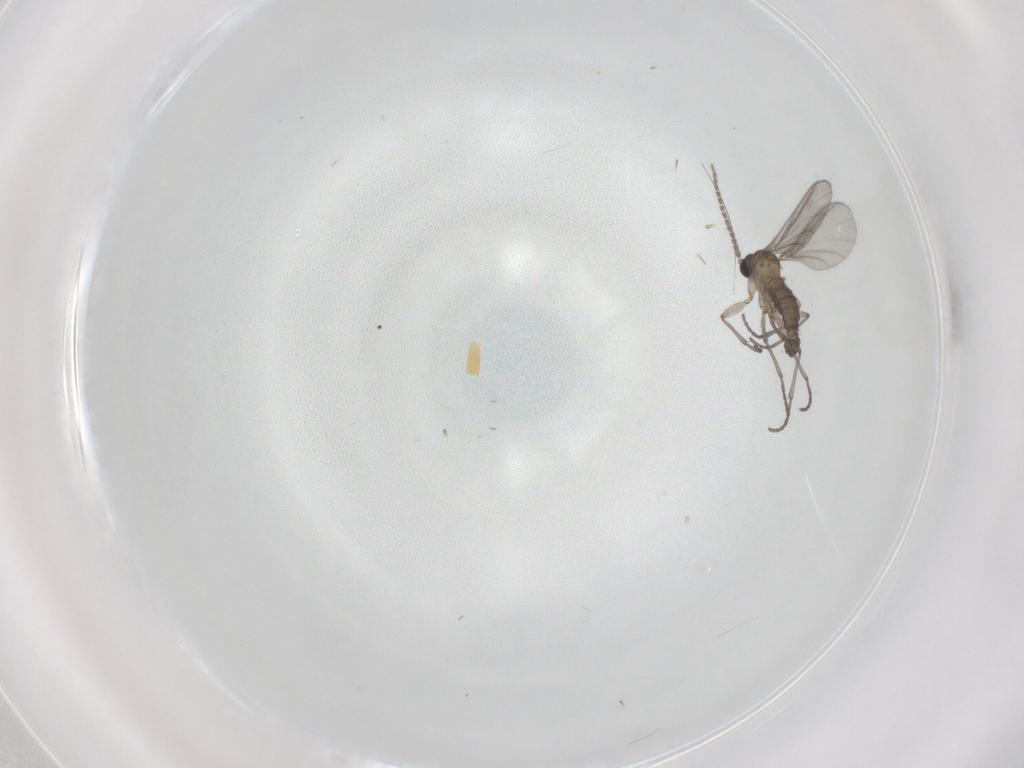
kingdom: Animalia
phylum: Arthropoda
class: Insecta
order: Diptera
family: Sciaridae
